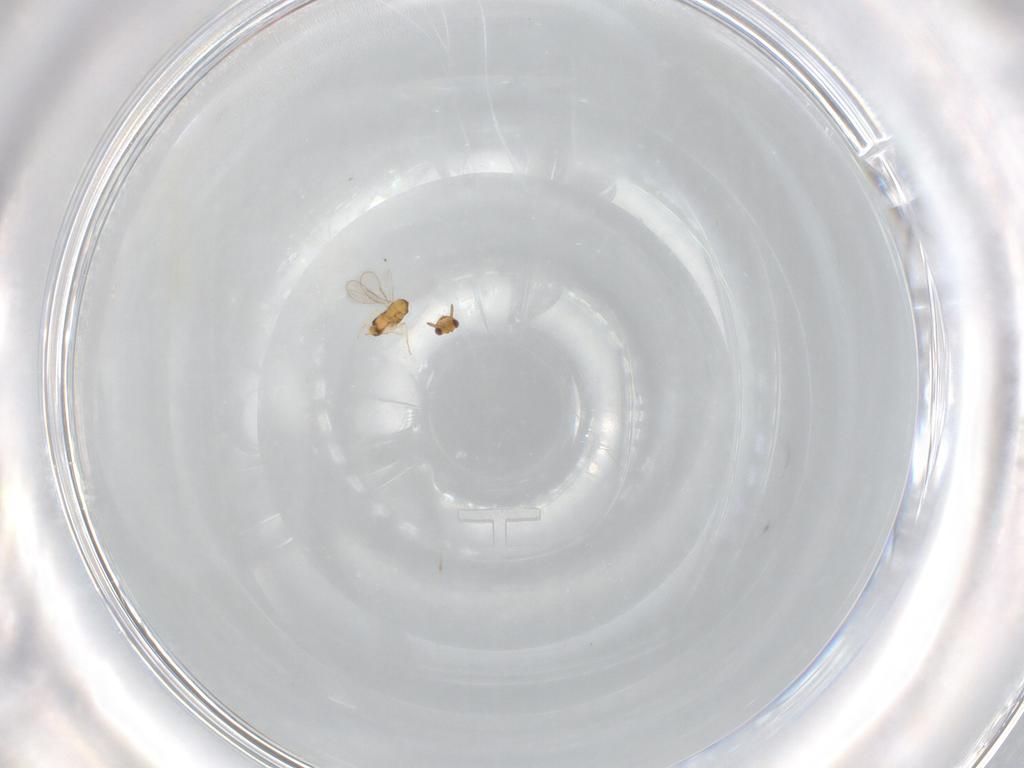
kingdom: Animalia
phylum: Arthropoda
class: Insecta
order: Hymenoptera
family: Aphelinidae
